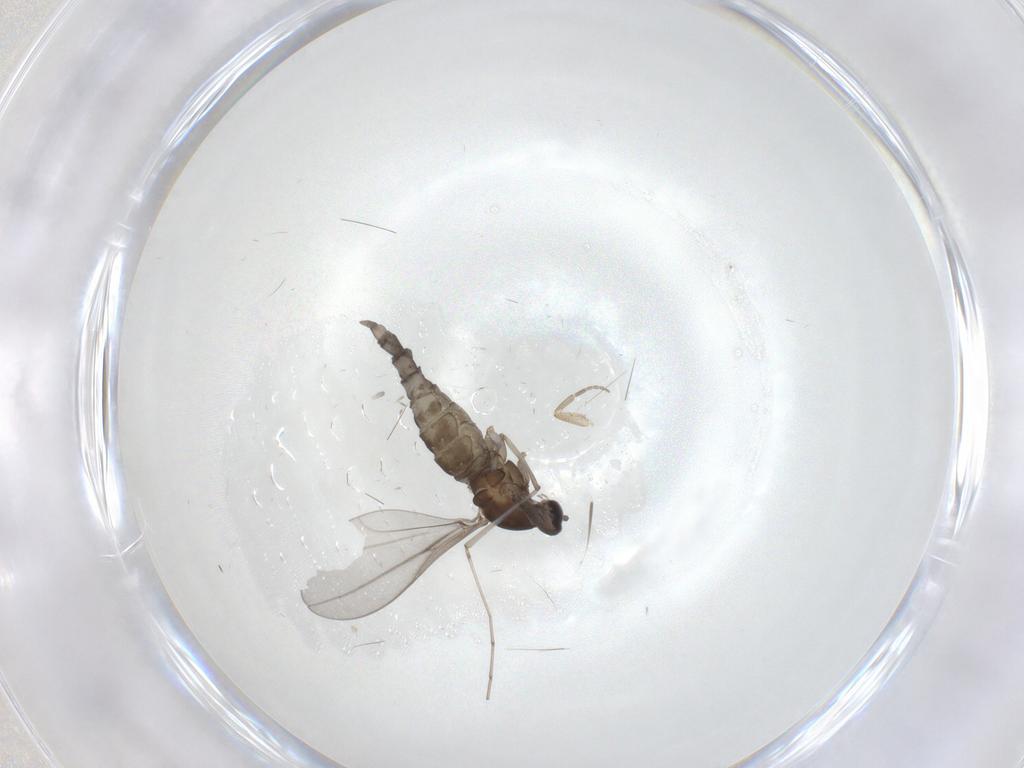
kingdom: Animalia
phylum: Arthropoda
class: Insecta
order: Diptera
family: Cecidomyiidae
